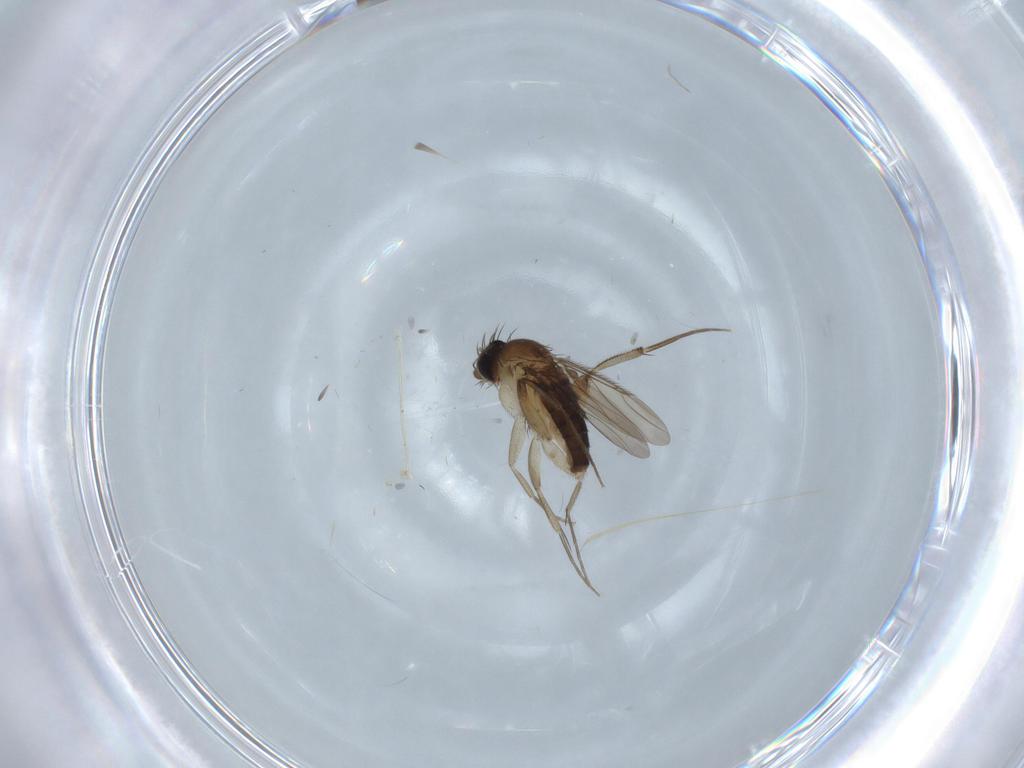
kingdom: Animalia
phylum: Arthropoda
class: Insecta
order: Diptera
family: Phoridae
